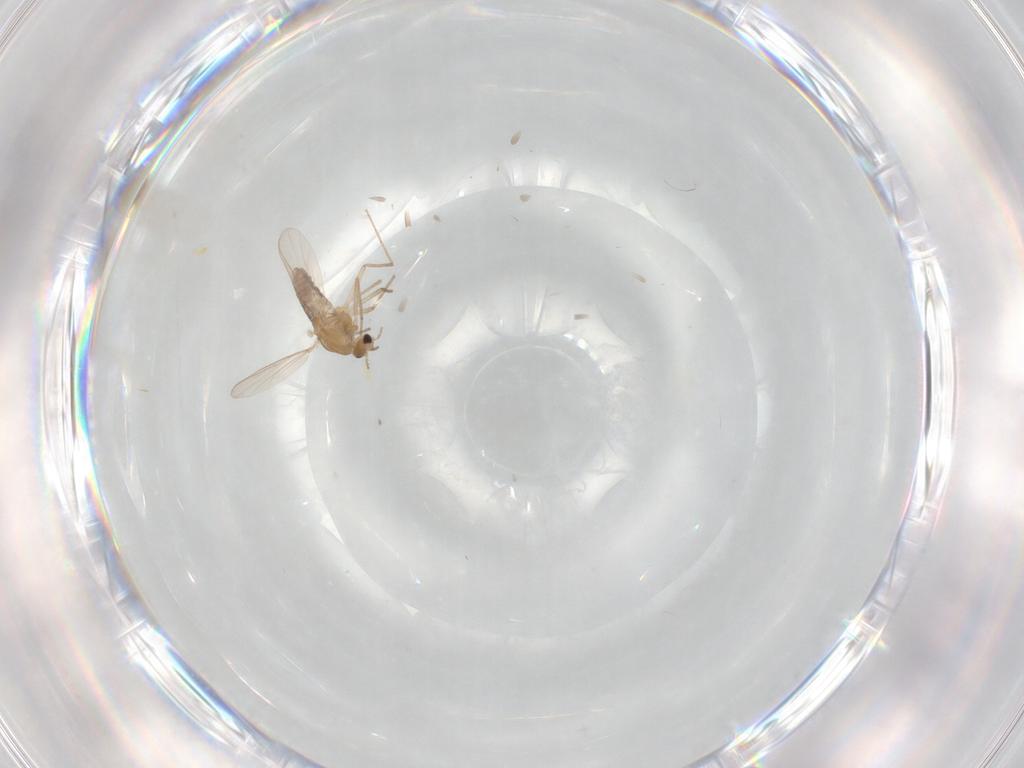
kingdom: Animalia
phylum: Arthropoda
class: Insecta
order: Diptera
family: Chironomidae
